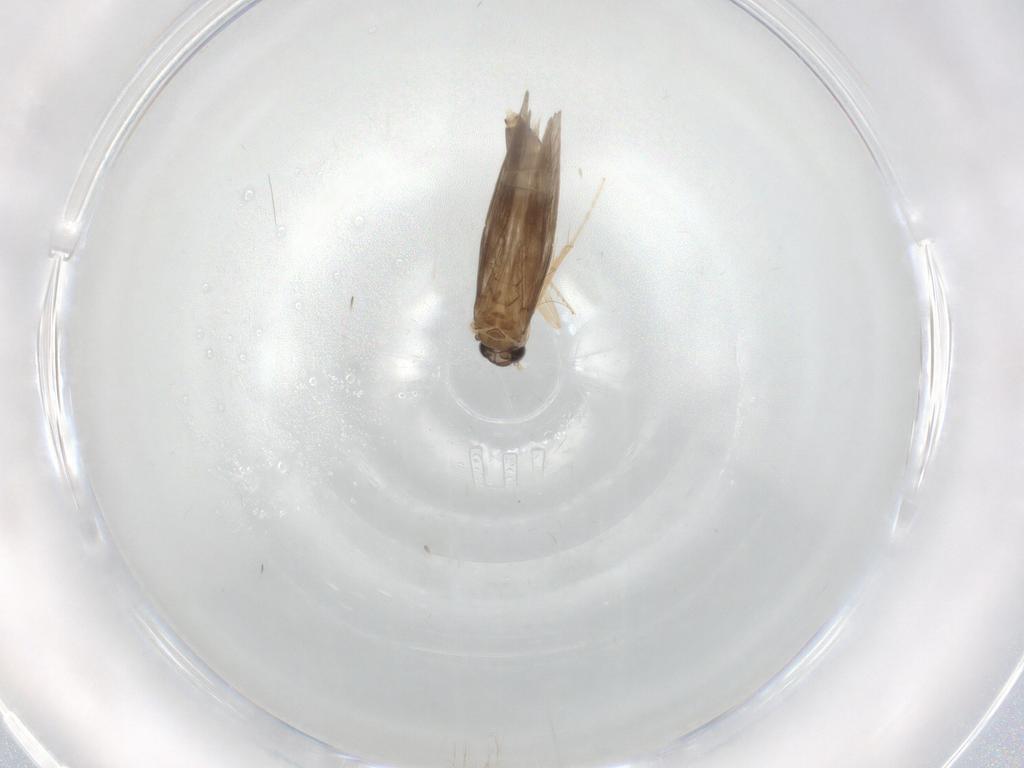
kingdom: Animalia
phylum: Arthropoda
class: Insecta
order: Trichoptera
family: Hydroptilidae
